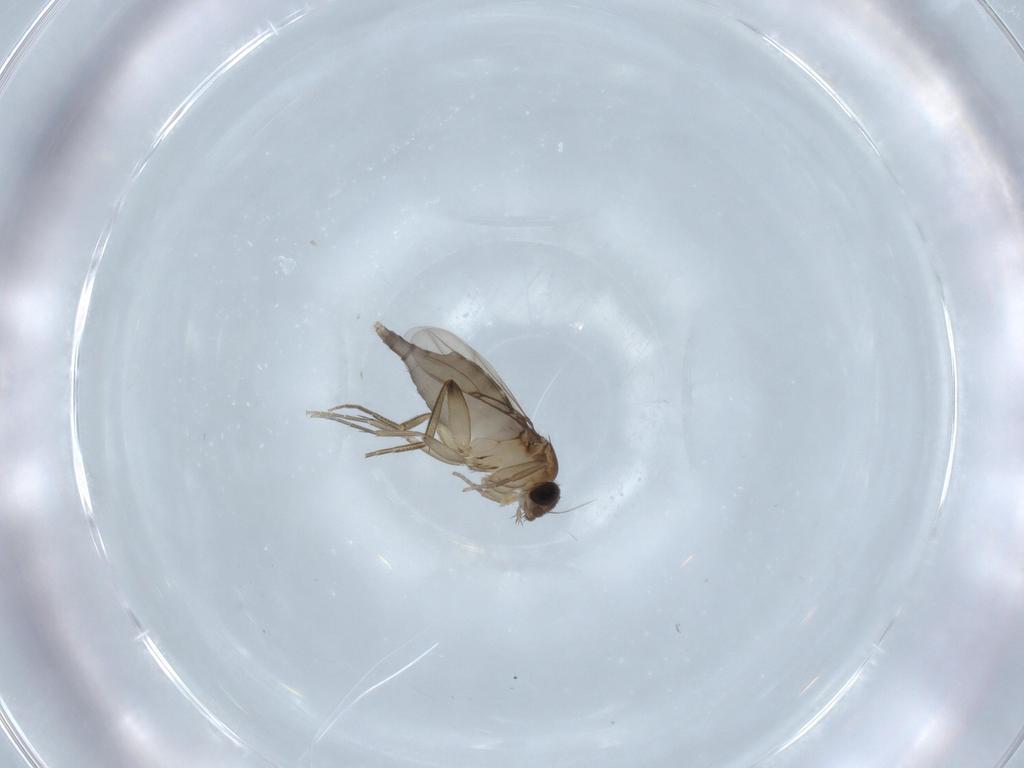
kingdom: Animalia
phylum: Arthropoda
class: Insecta
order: Diptera
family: Phoridae
